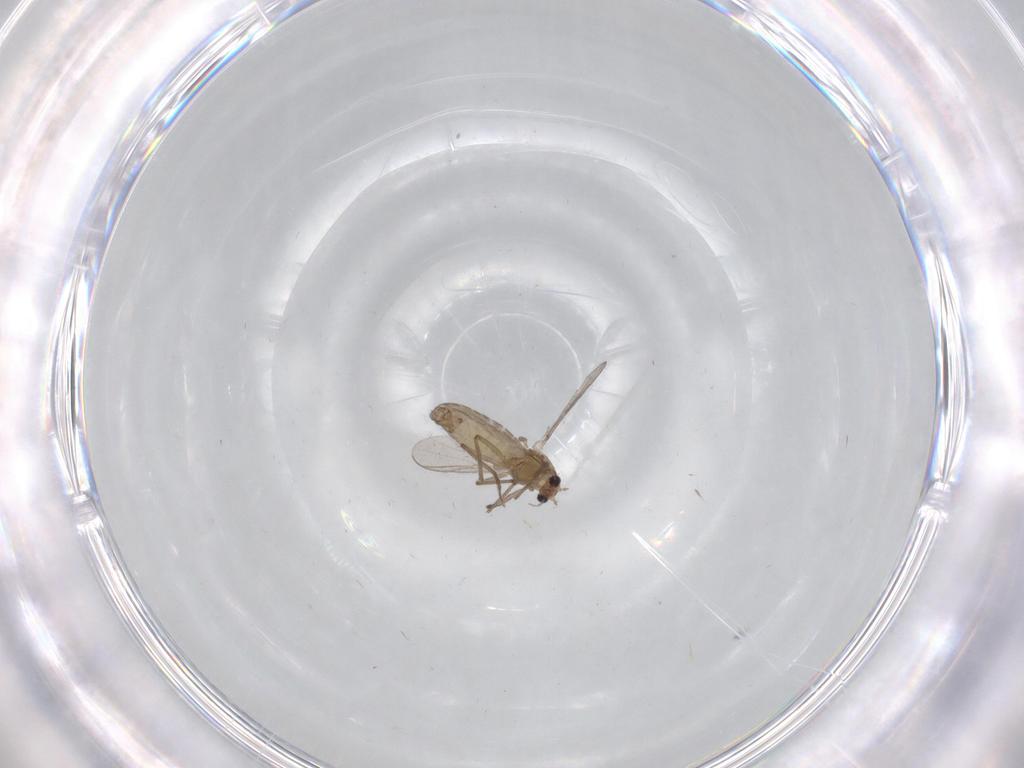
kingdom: Animalia
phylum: Arthropoda
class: Insecta
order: Diptera
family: Chironomidae
